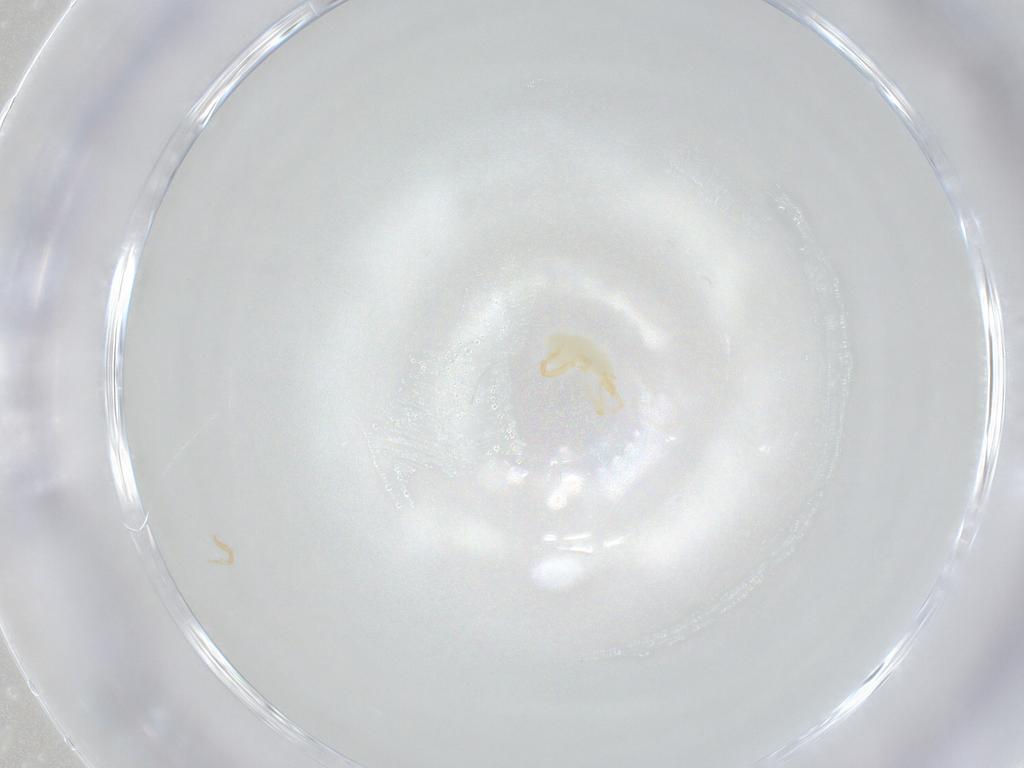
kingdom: Animalia
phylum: Arthropoda
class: Arachnida
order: Trombidiformes
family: Eupodidae
